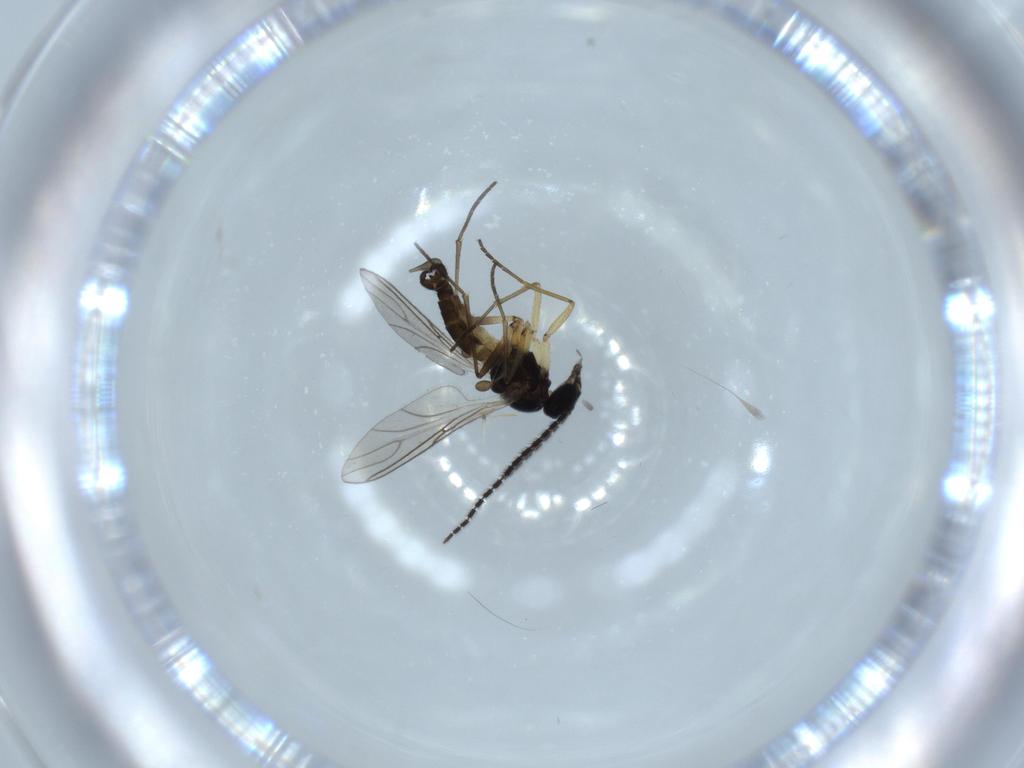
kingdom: Animalia
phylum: Arthropoda
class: Insecta
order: Diptera
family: Sciaridae
